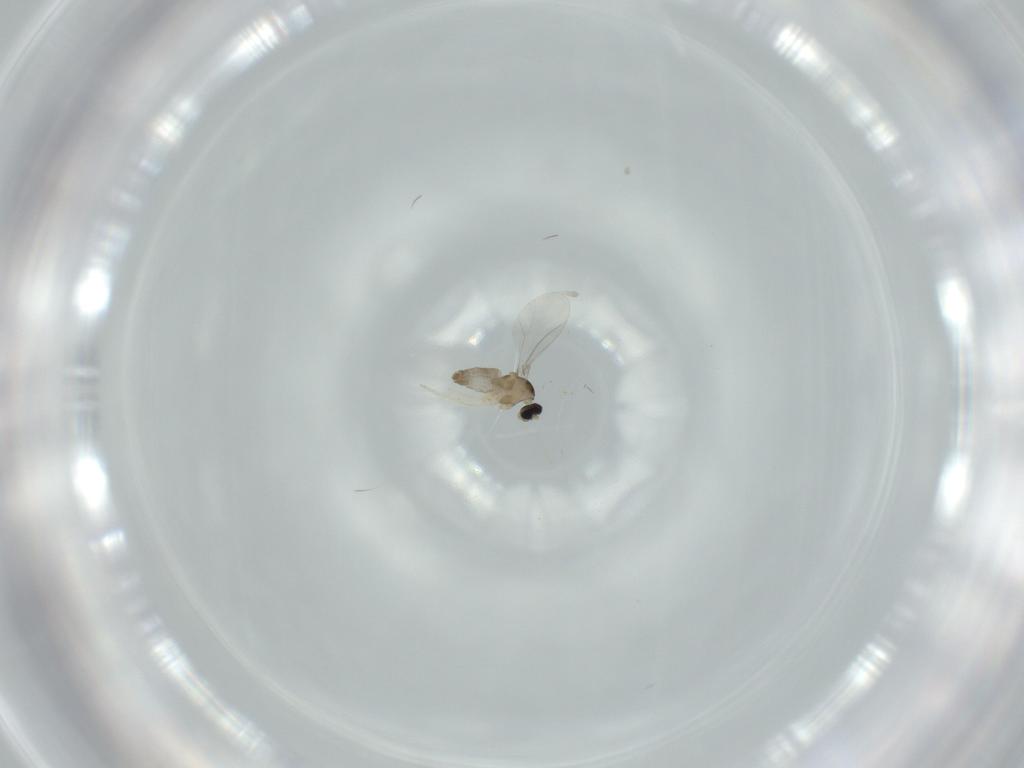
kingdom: Animalia
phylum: Arthropoda
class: Insecta
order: Diptera
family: Cecidomyiidae
